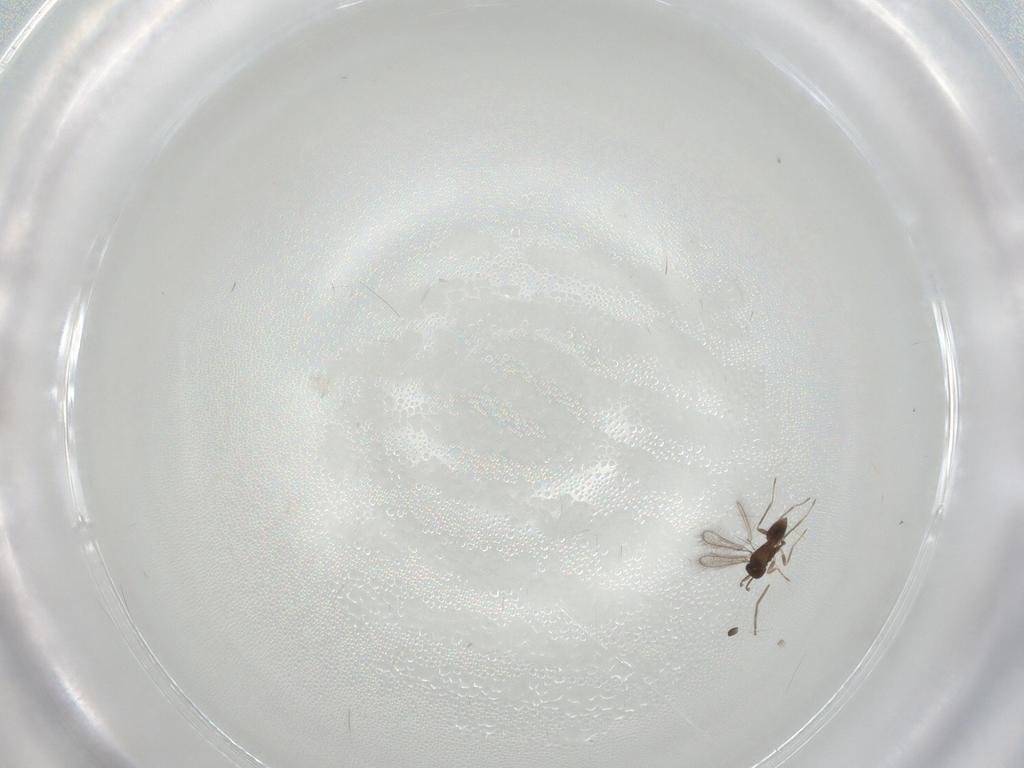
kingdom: Animalia
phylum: Arthropoda
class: Insecta
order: Hymenoptera
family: Mymaridae
